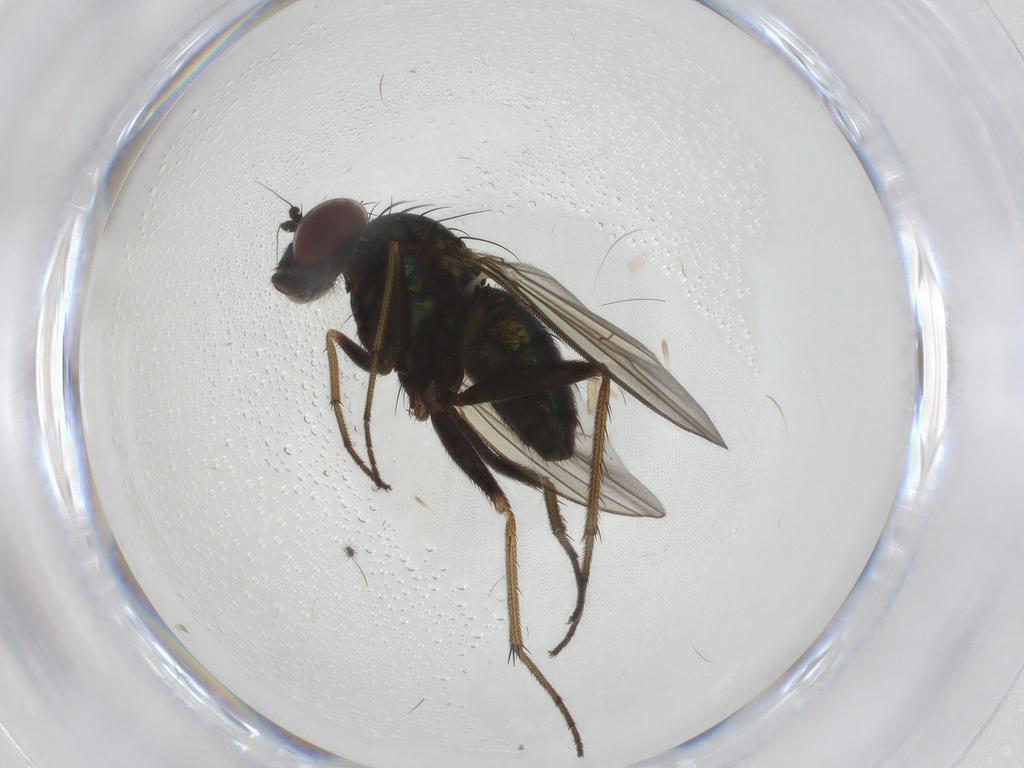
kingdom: Animalia
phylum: Arthropoda
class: Insecta
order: Diptera
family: Dolichopodidae
